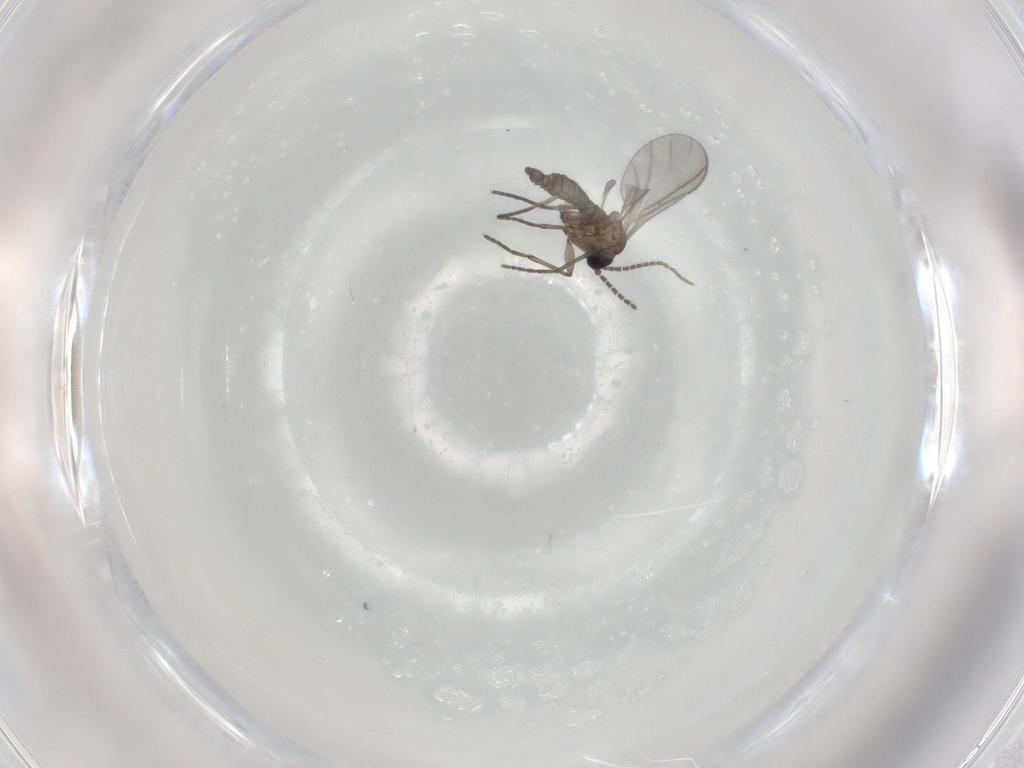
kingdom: Animalia
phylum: Arthropoda
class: Insecta
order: Diptera
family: Sciaridae
